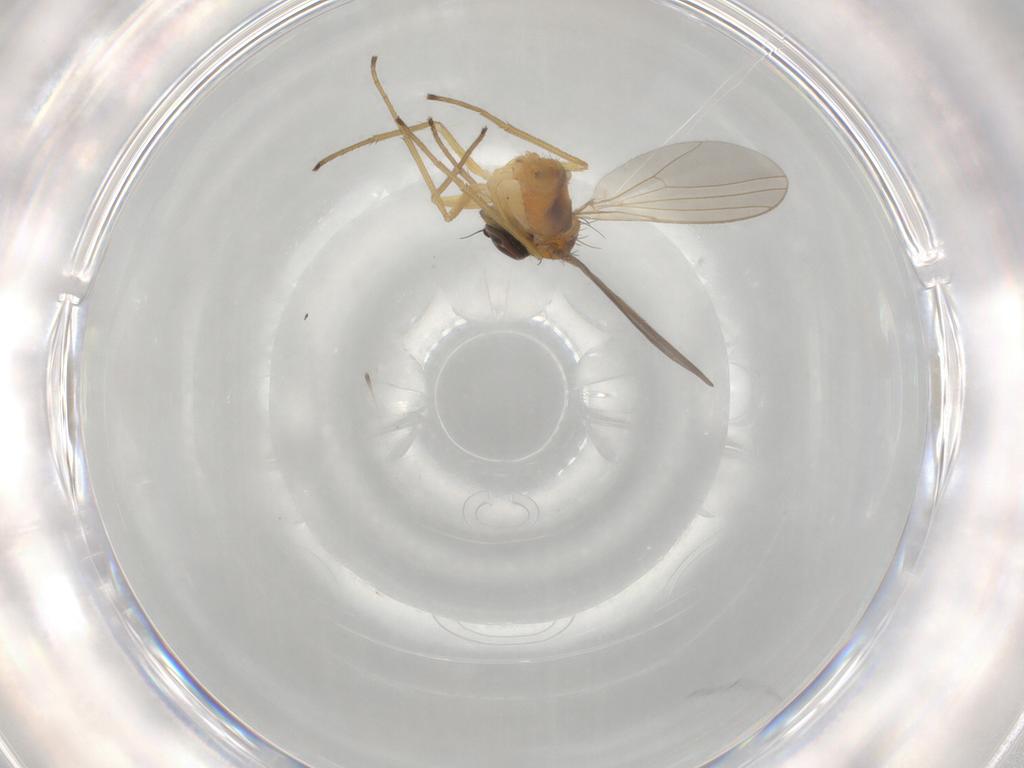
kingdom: Animalia
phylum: Arthropoda
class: Insecta
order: Diptera
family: Dolichopodidae
